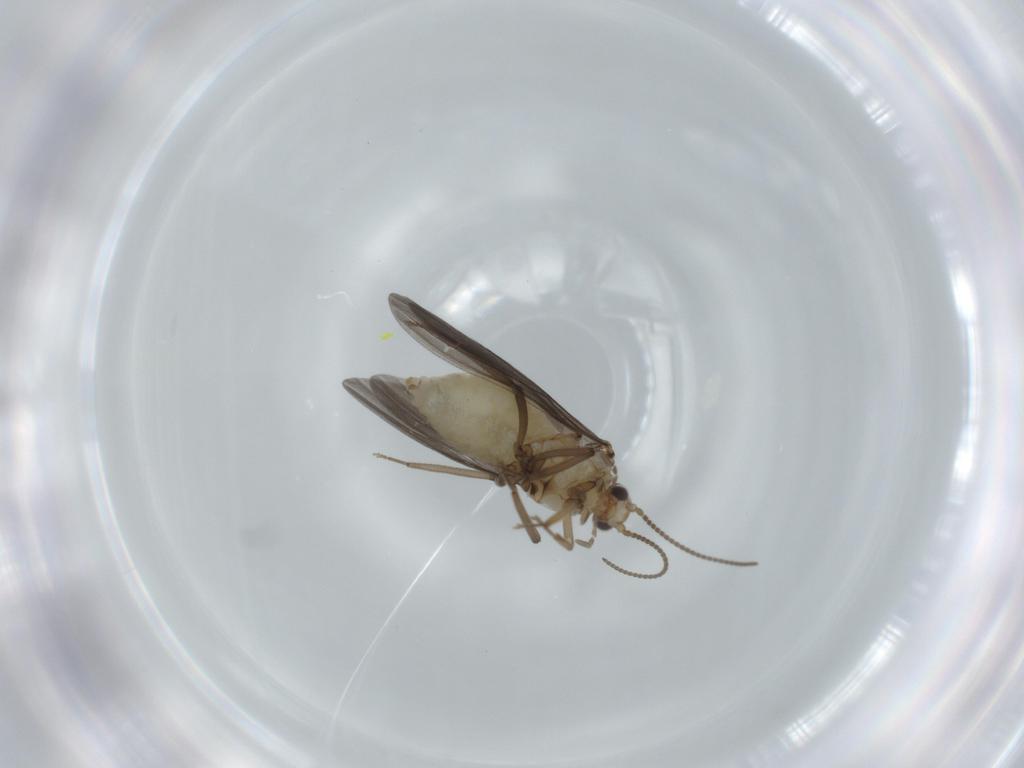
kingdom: Animalia
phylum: Arthropoda
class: Insecta
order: Neuroptera
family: Coniopterygidae
